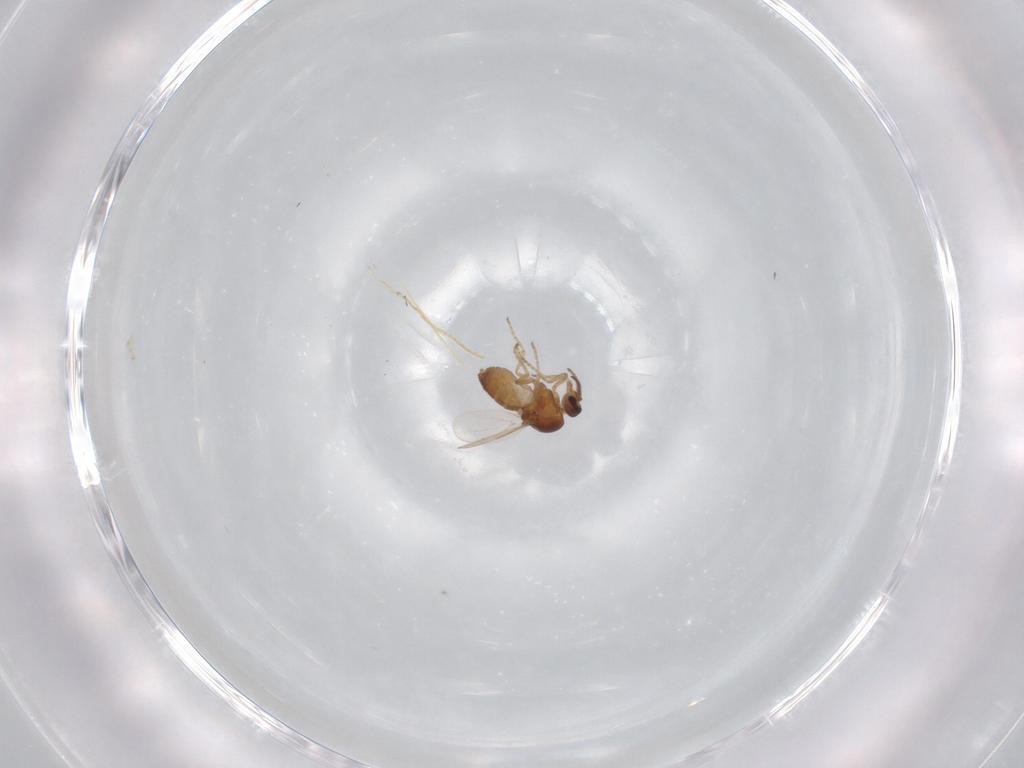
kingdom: Animalia
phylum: Arthropoda
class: Insecta
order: Diptera
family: Ceratopogonidae
